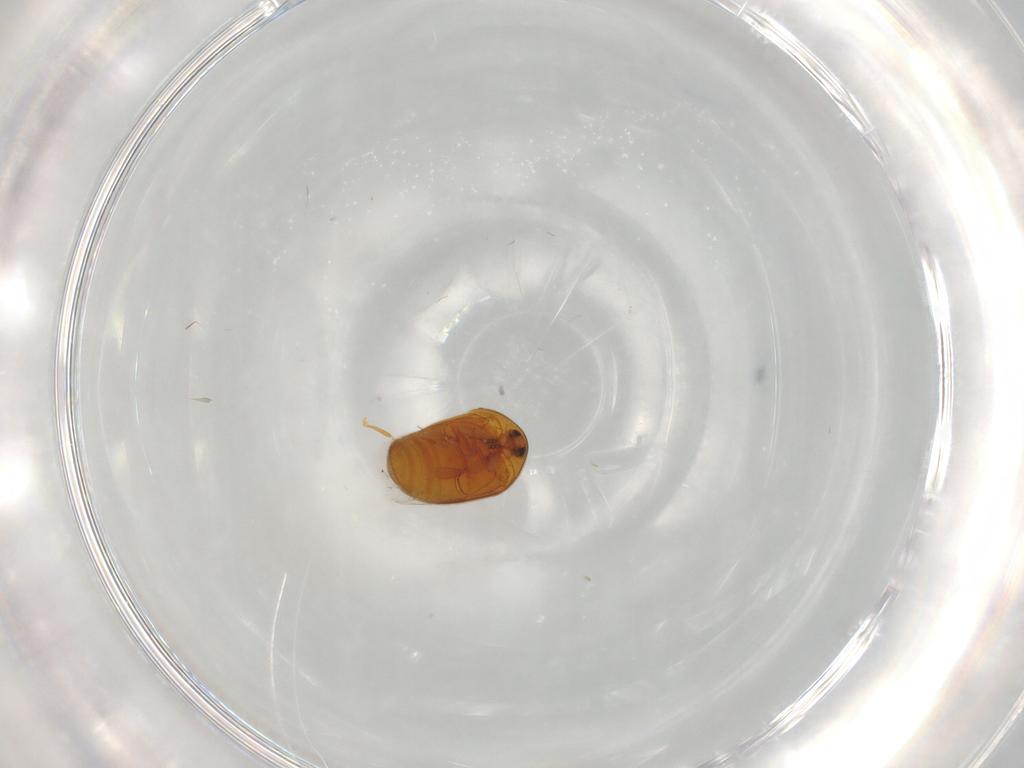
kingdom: Animalia
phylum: Arthropoda
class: Insecta
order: Coleoptera
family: Corylophidae
